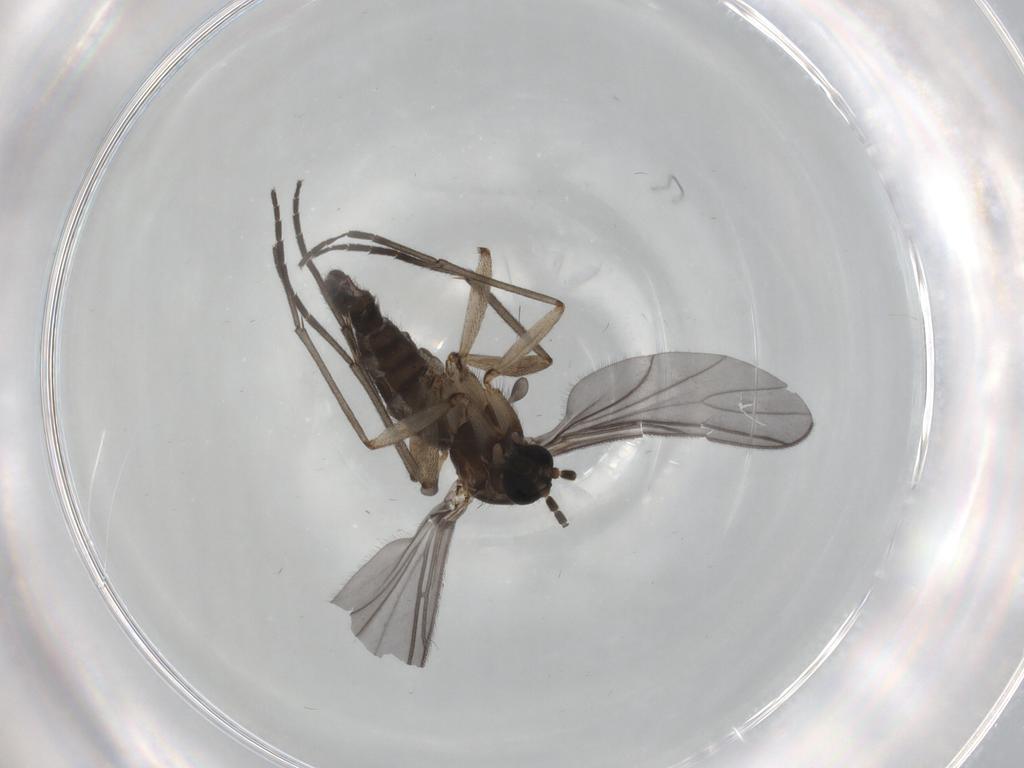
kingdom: Animalia
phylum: Arthropoda
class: Insecta
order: Diptera
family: Sciaridae
